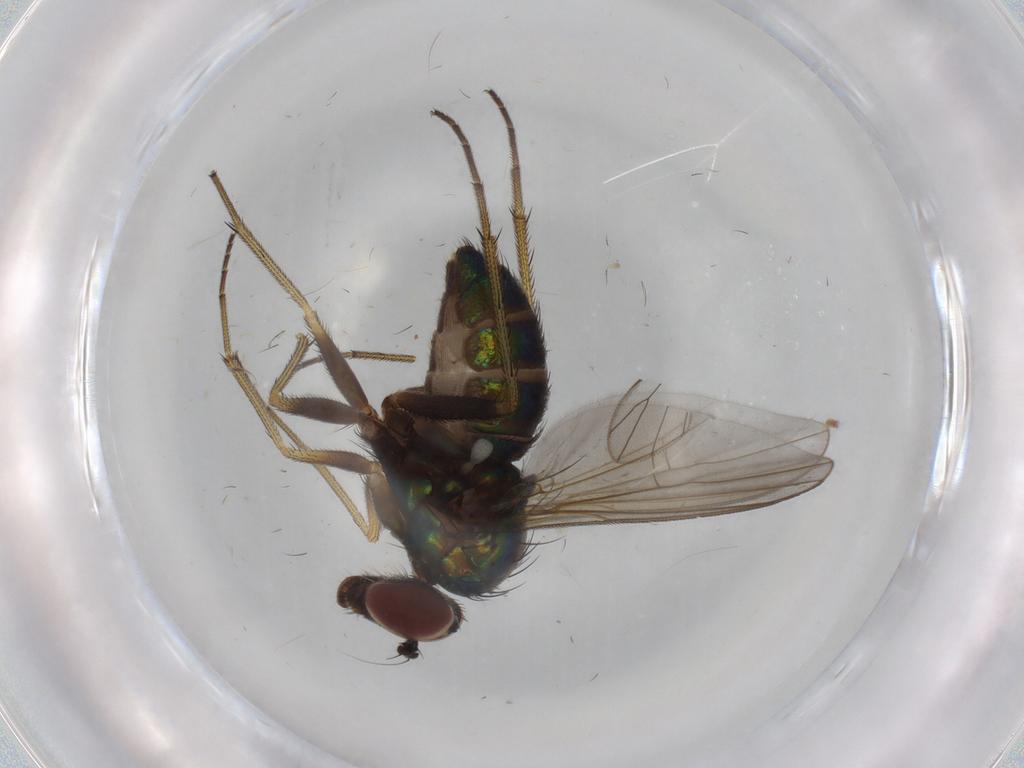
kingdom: Animalia
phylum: Arthropoda
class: Insecta
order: Diptera
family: Dolichopodidae
